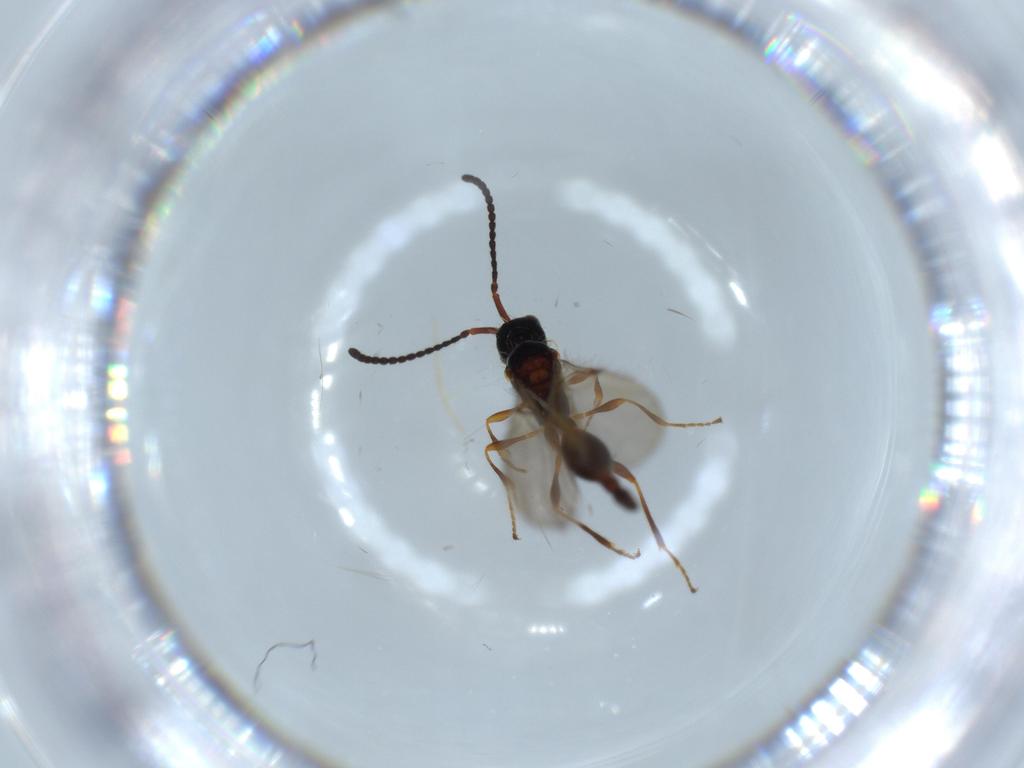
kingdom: Animalia
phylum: Arthropoda
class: Insecta
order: Hymenoptera
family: Diapriidae
